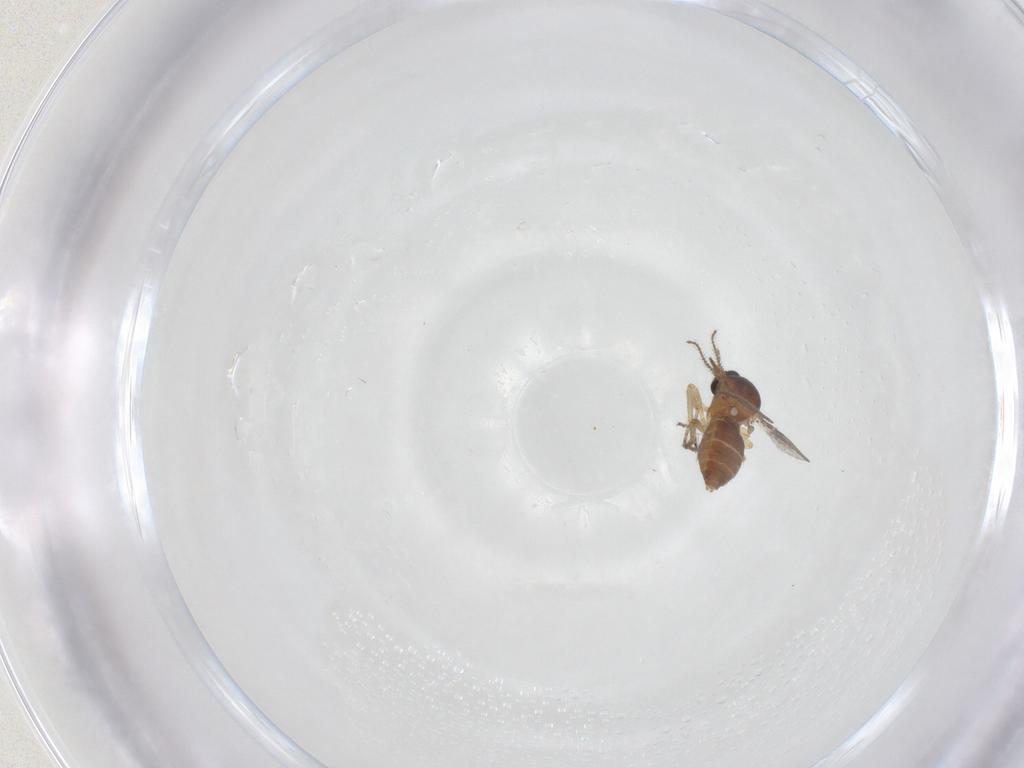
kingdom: Animalia
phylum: Arthropoda
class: Insecta
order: Diptera
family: Ceratopogonidae
